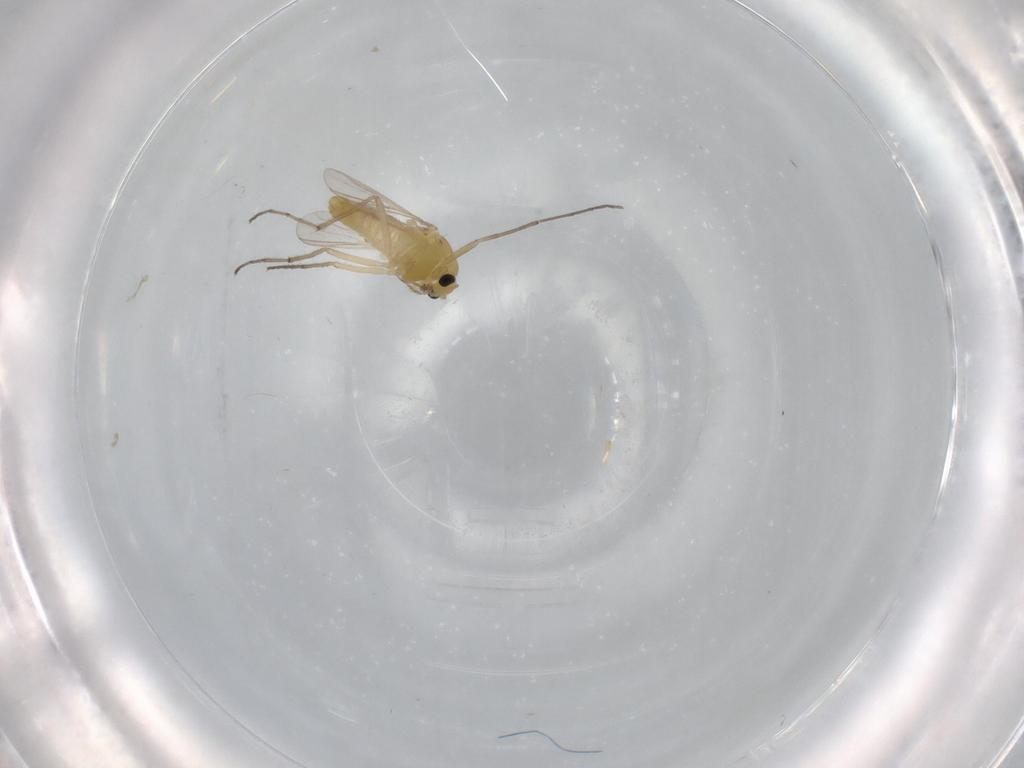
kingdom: Animalia
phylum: Arthropoda
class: Insecta
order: Diptera
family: Chironomidae
